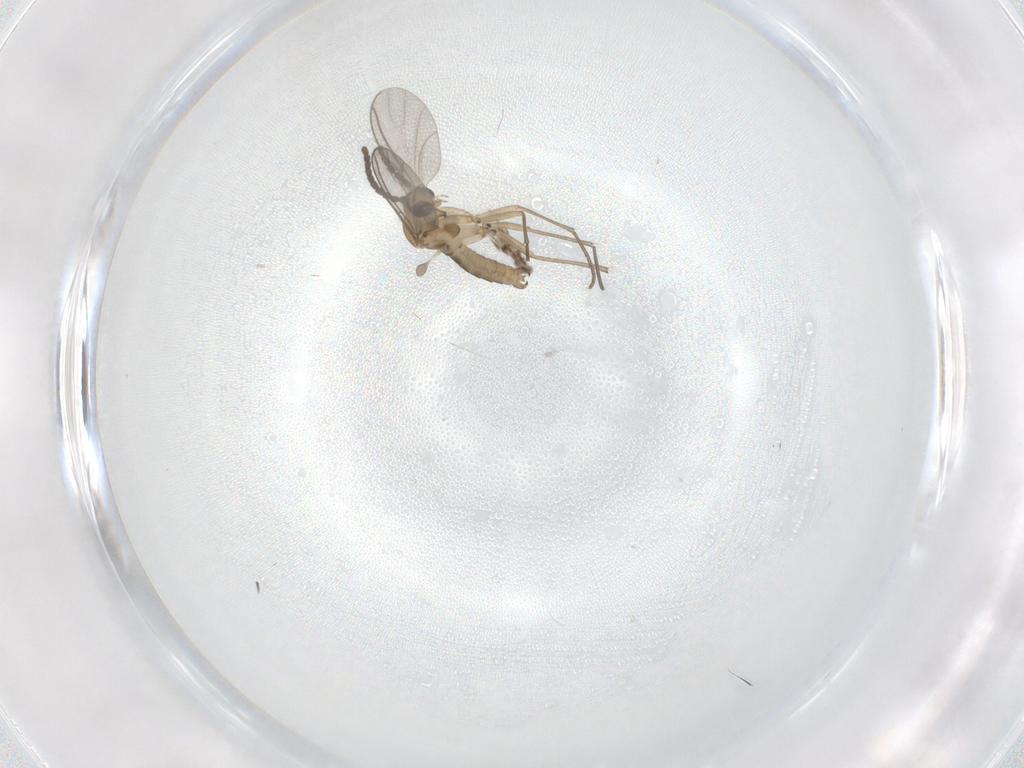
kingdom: Animalia
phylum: Arthropoda
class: Insecta
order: Diptera
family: Sciaridae
